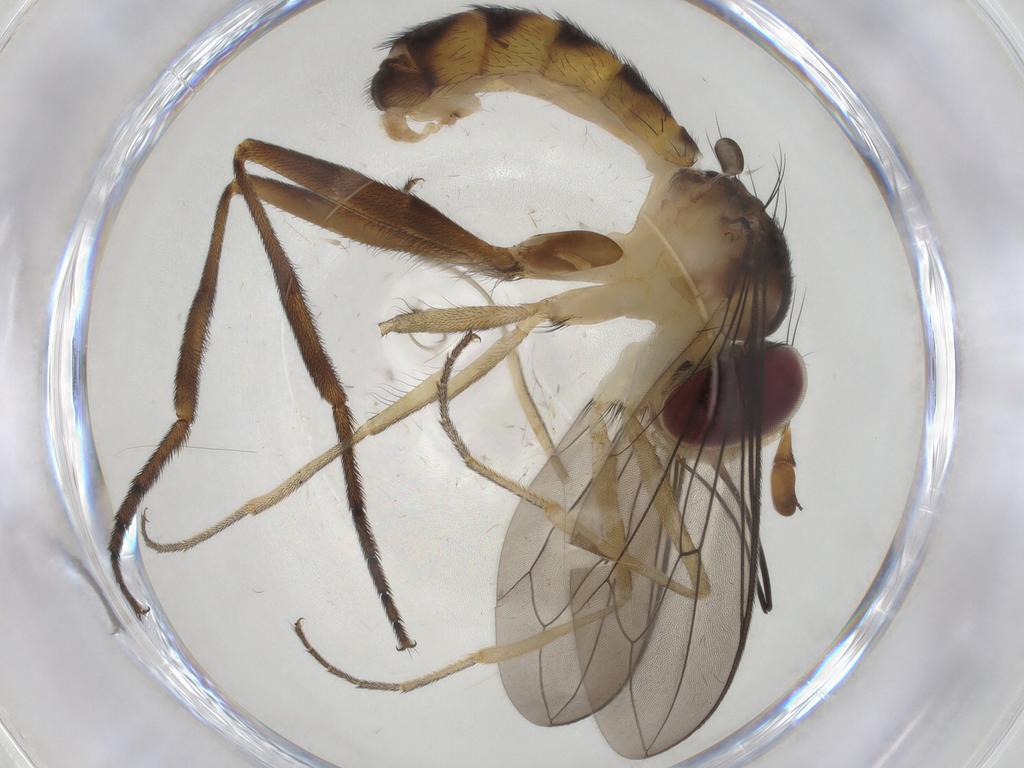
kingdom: Animalia
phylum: Arthropoda
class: Insecta
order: Diptera
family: Conopidae
